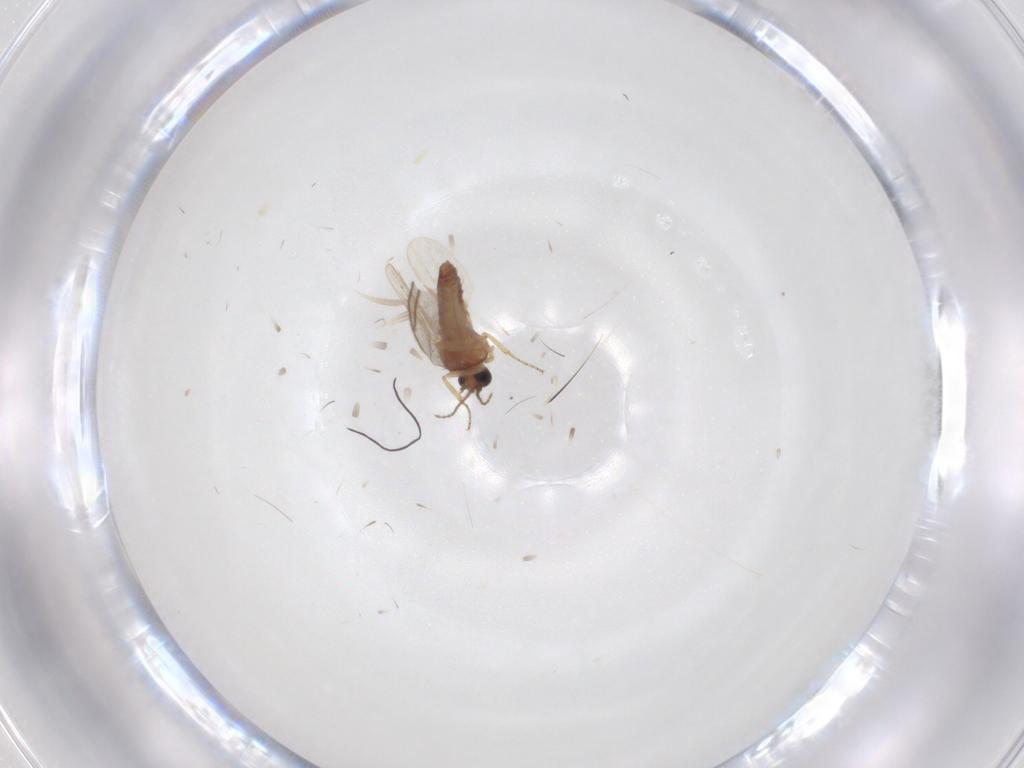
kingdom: Animalia
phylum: Arthropoda
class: Insecta
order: Diptera
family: Ceratopogonidae
